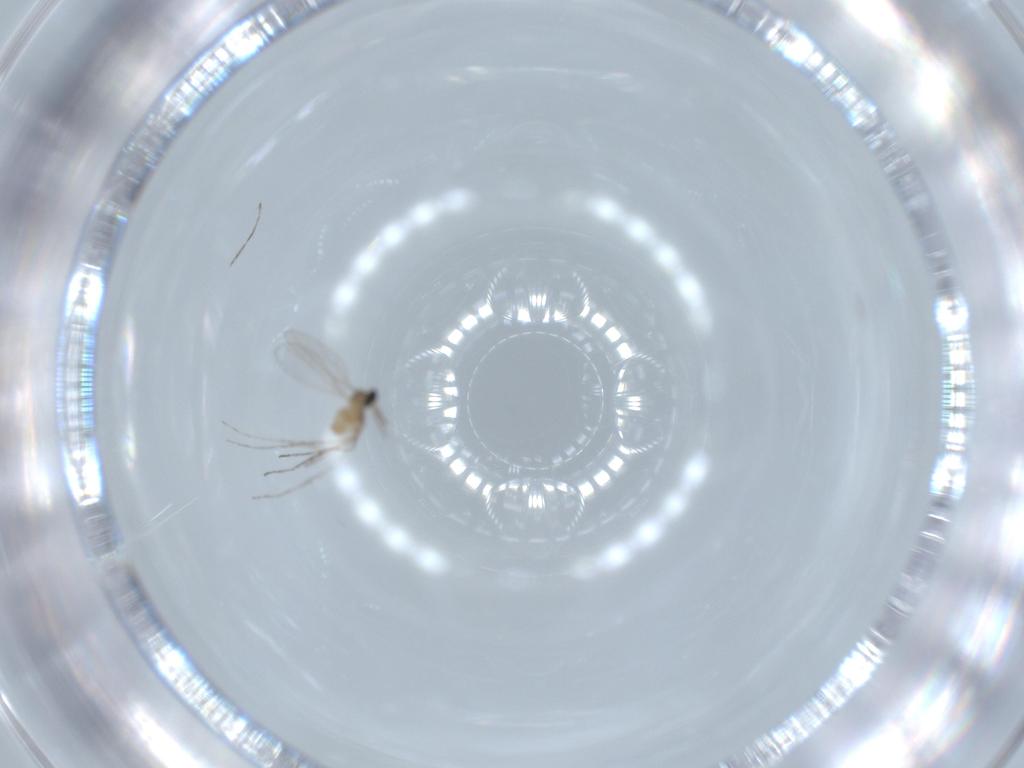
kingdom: Animalia
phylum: Arthropoda
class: Insecta
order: Diptera
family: Cecidomyiidae
